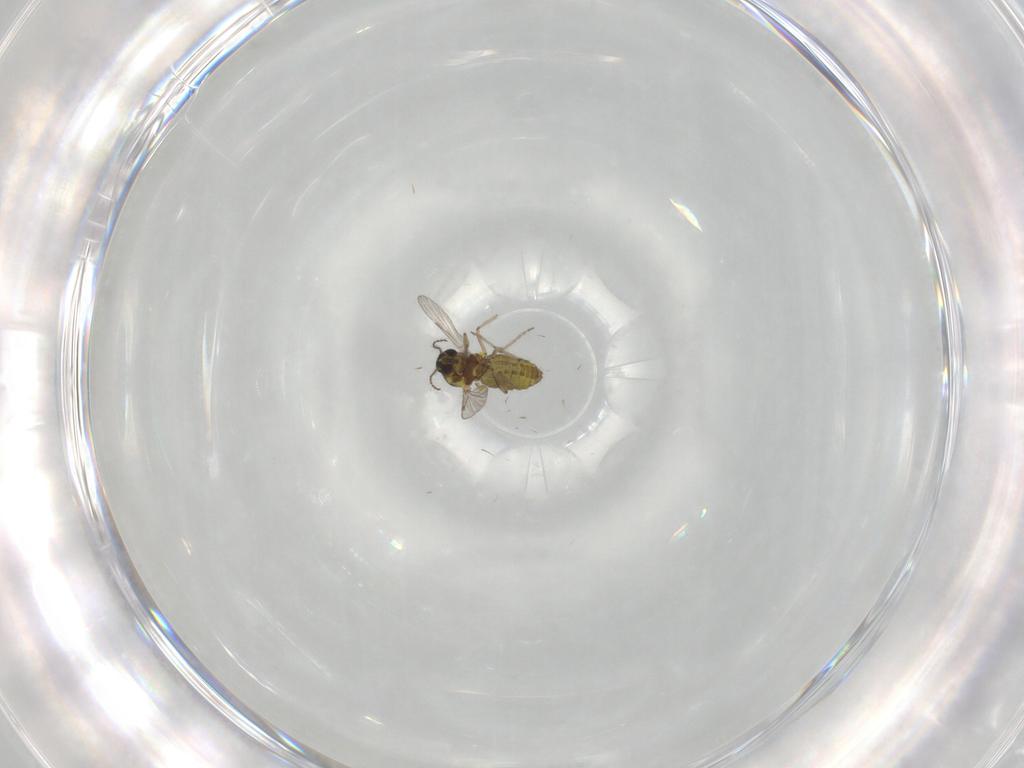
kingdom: Animalia
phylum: Arthropoda
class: Insecta
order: Diptera
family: Ceratopogonidae
